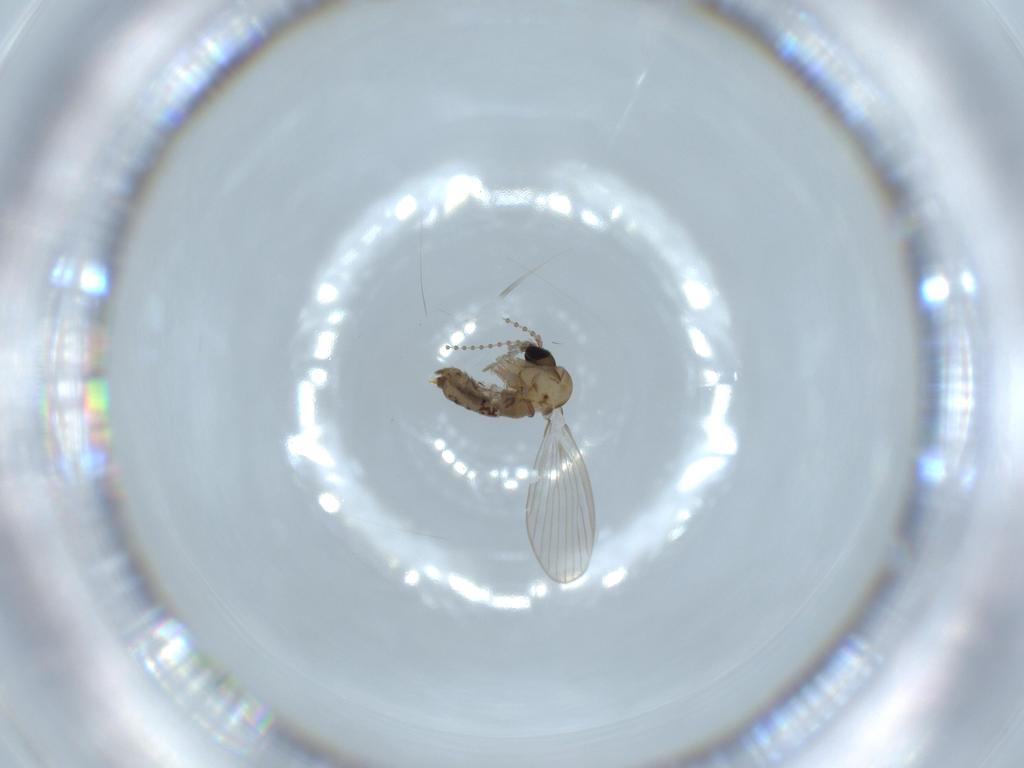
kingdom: Animalia
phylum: Arthropoda
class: Insecta
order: Diptera
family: Psychodidae
